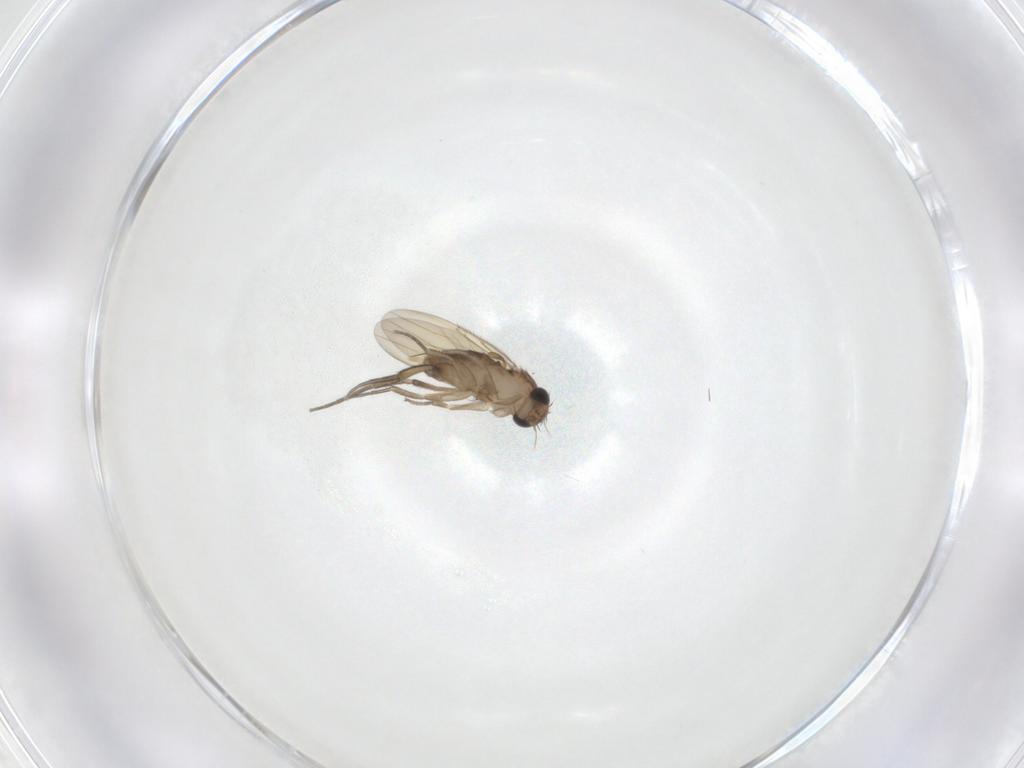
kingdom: Animalia
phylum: Arthropoda
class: Insecta
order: Diptera
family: Phoridae
